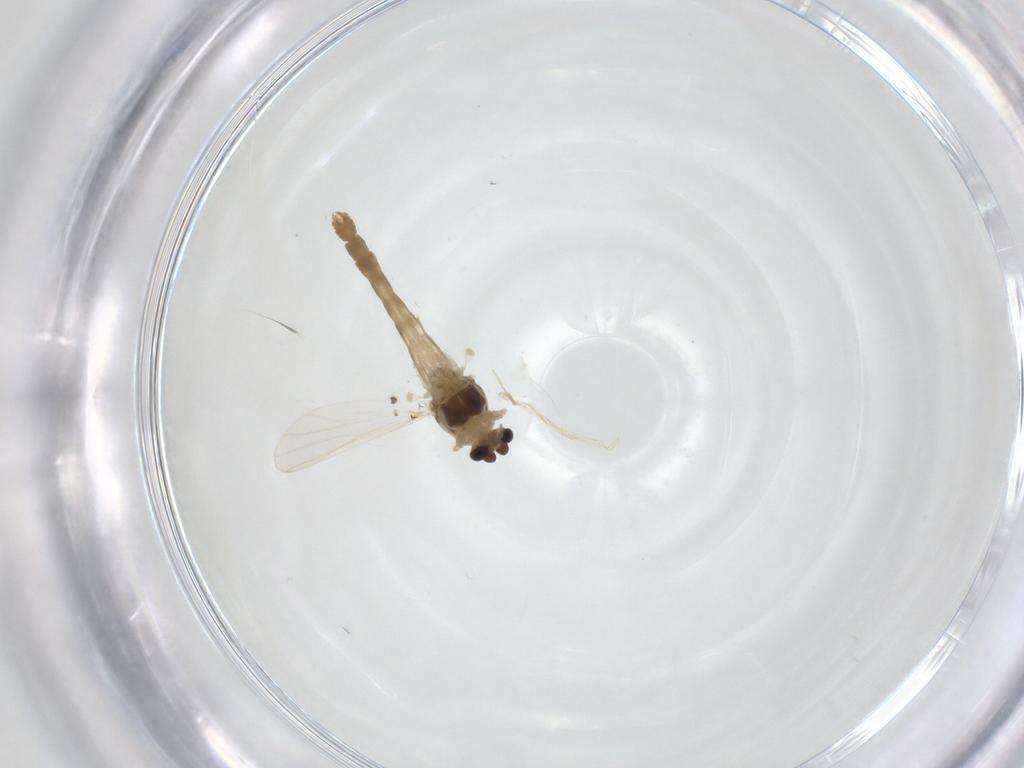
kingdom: Animalia
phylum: Arthropoda
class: Insecta
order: Diptera
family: Chironomidae
